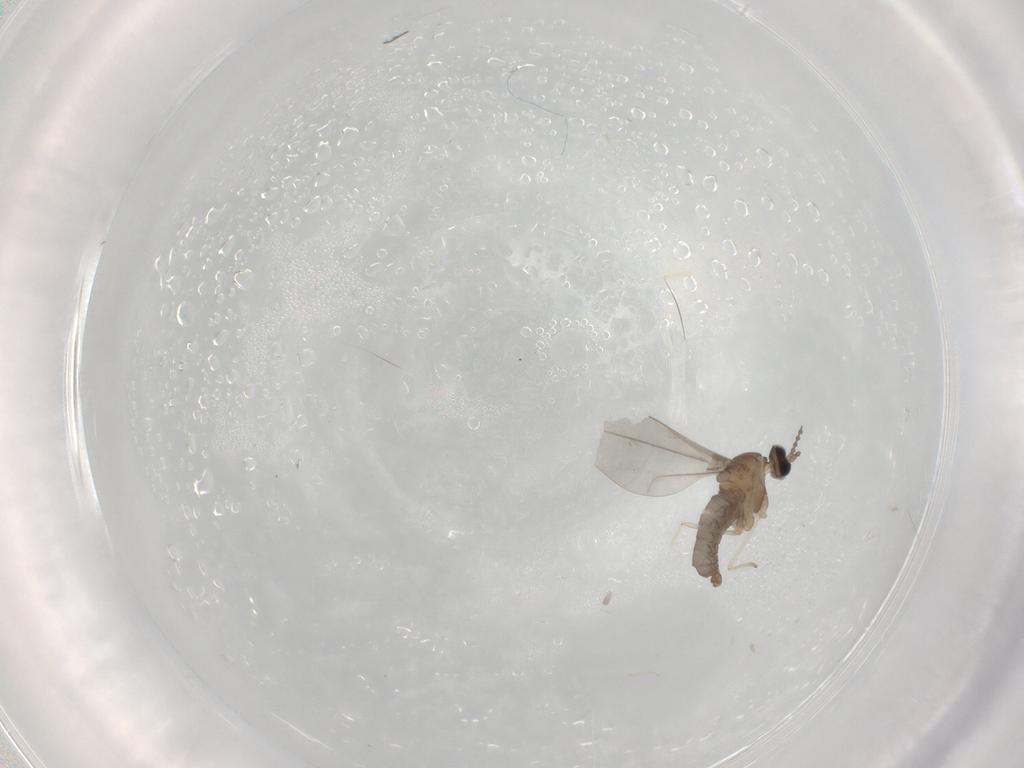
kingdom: Animalia
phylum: Arthropoda
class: Insecta
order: Diptera
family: Cecidomyiidae
